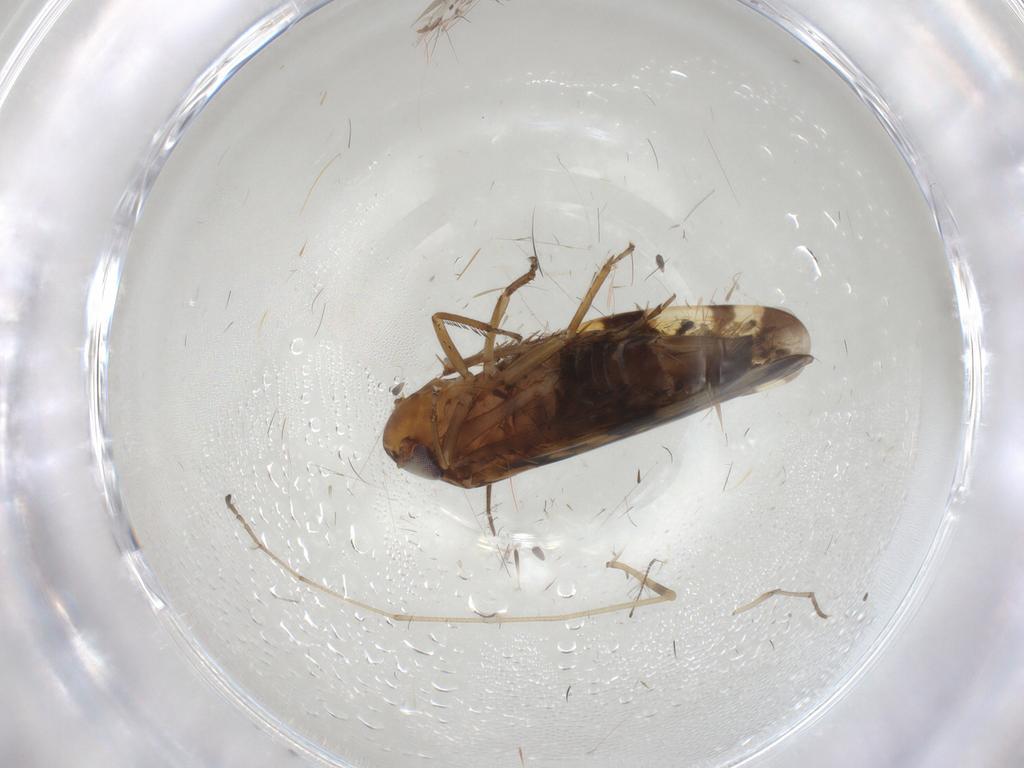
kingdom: Animalia
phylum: Arthropoda
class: Insecta
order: Hemiptera
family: Cicadellidae
